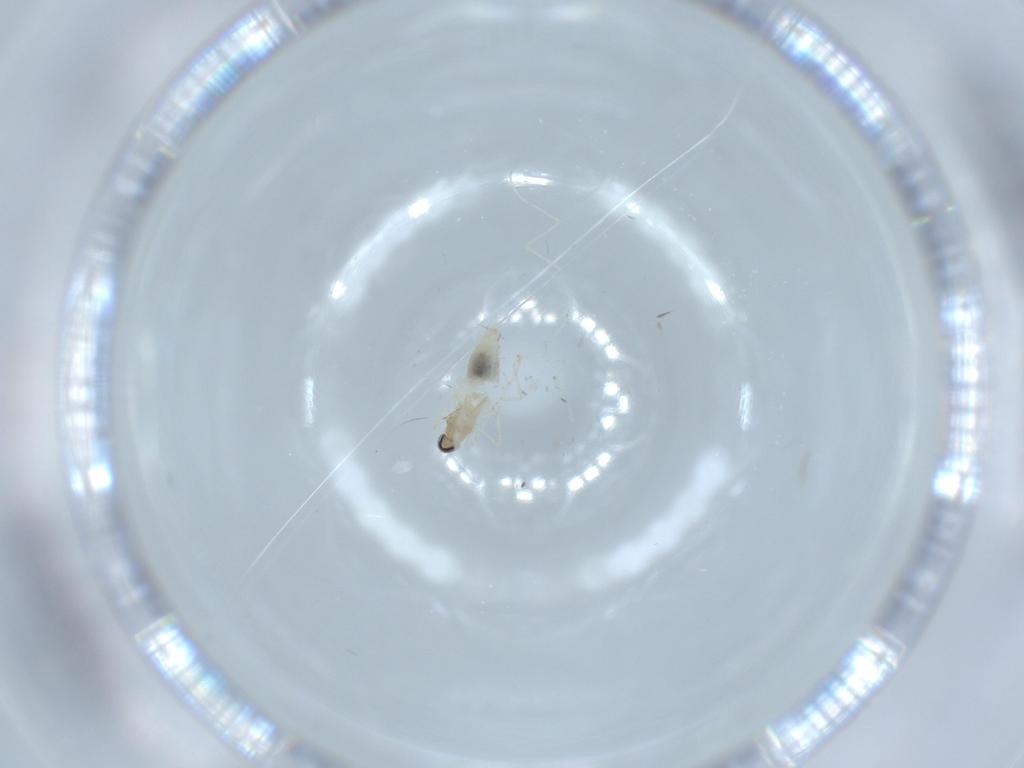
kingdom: Animalia
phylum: Arthropoda
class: Insecta
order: Diptera
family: Cecidomyiidae
